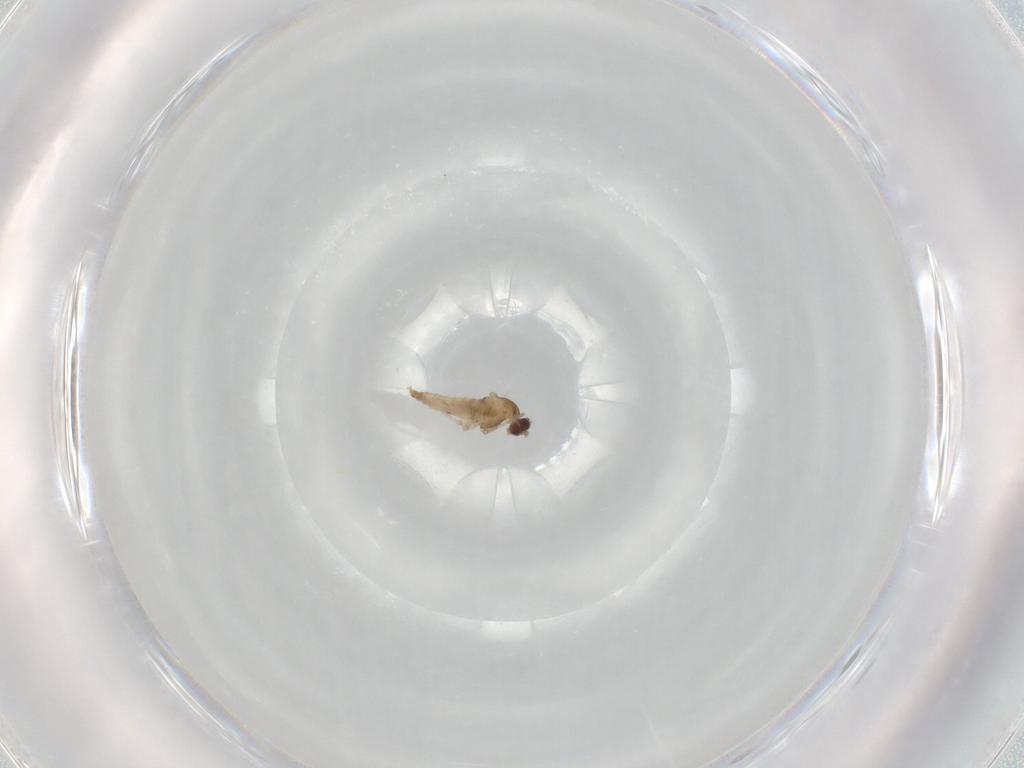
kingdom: Animalia
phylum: Arthropoda
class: Insecta
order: Diptera
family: Cecidomyiidae
